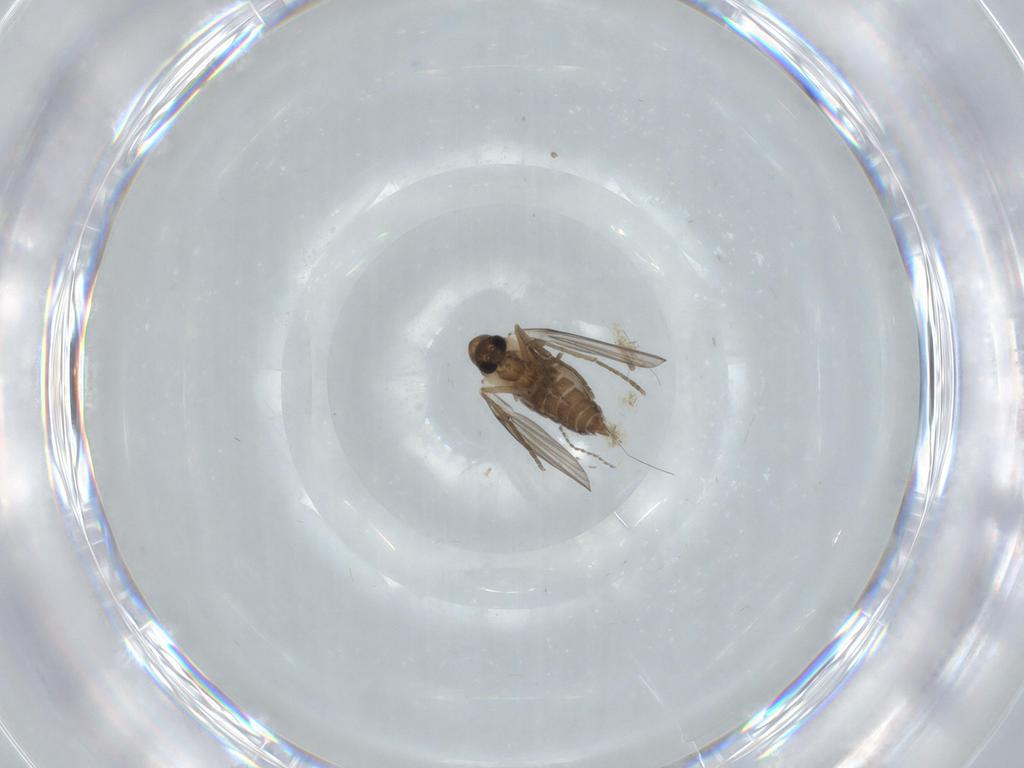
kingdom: Animalia
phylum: Arthropoda
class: Insecta
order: Diptera
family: Psychodidae
